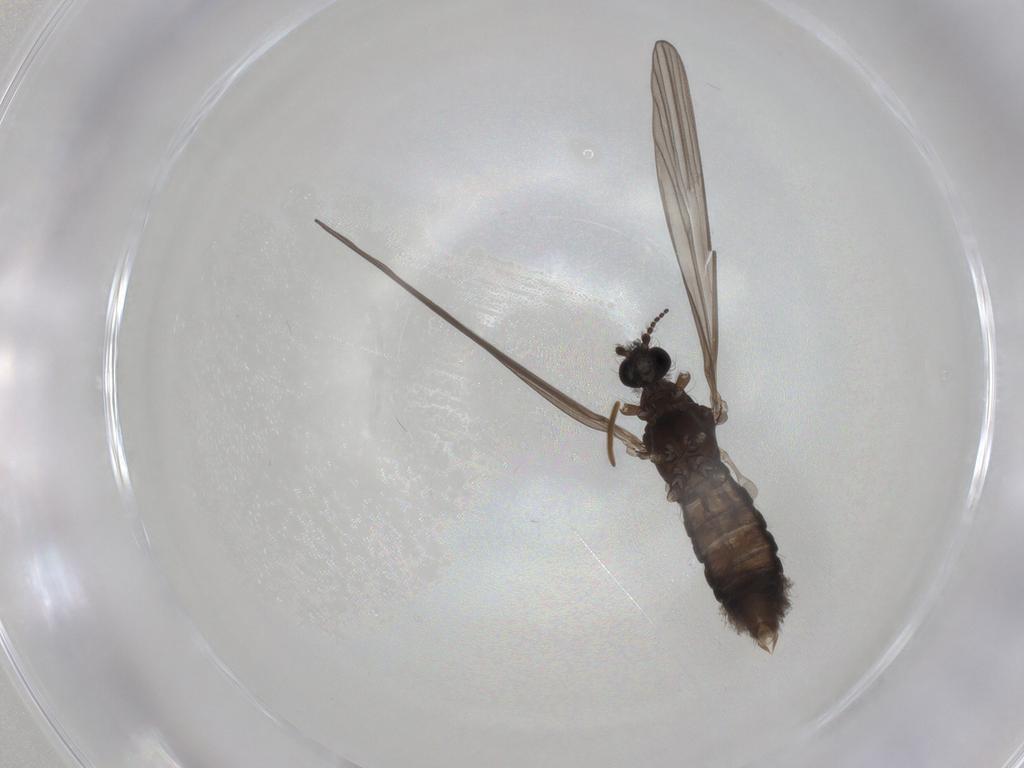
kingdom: Animalia
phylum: Arthropoda
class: Insecta
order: Diptera
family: Limoniidae
